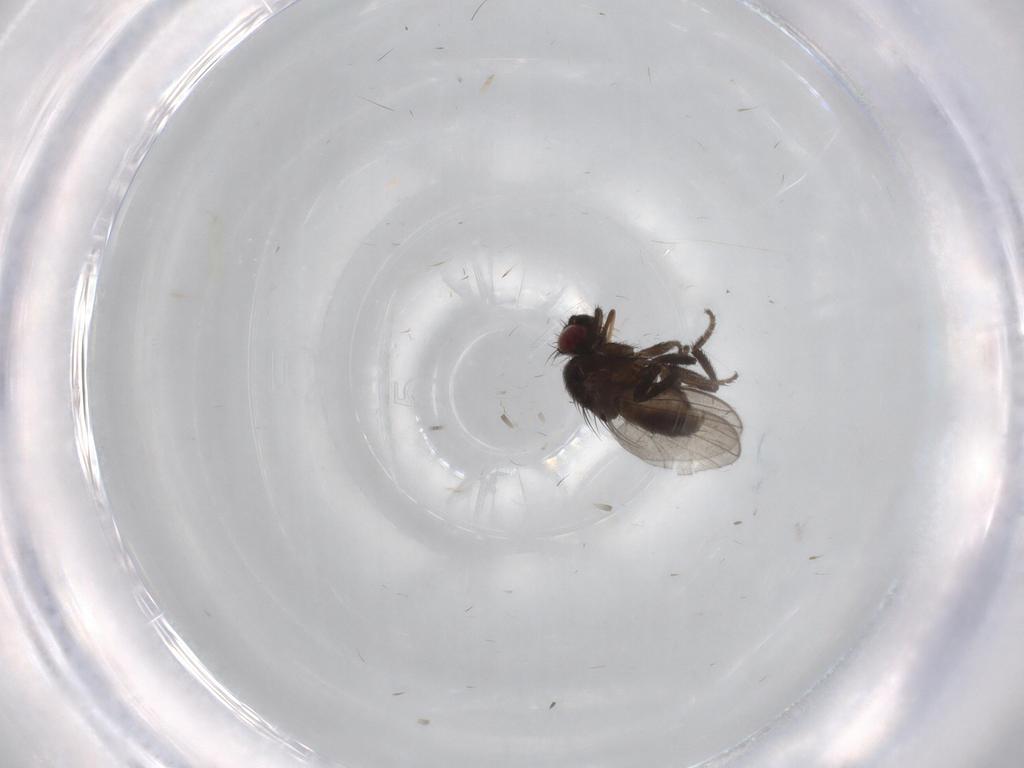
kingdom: Animalia
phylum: Arthropoda
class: Insecta
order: Diptera
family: Milichiidae
